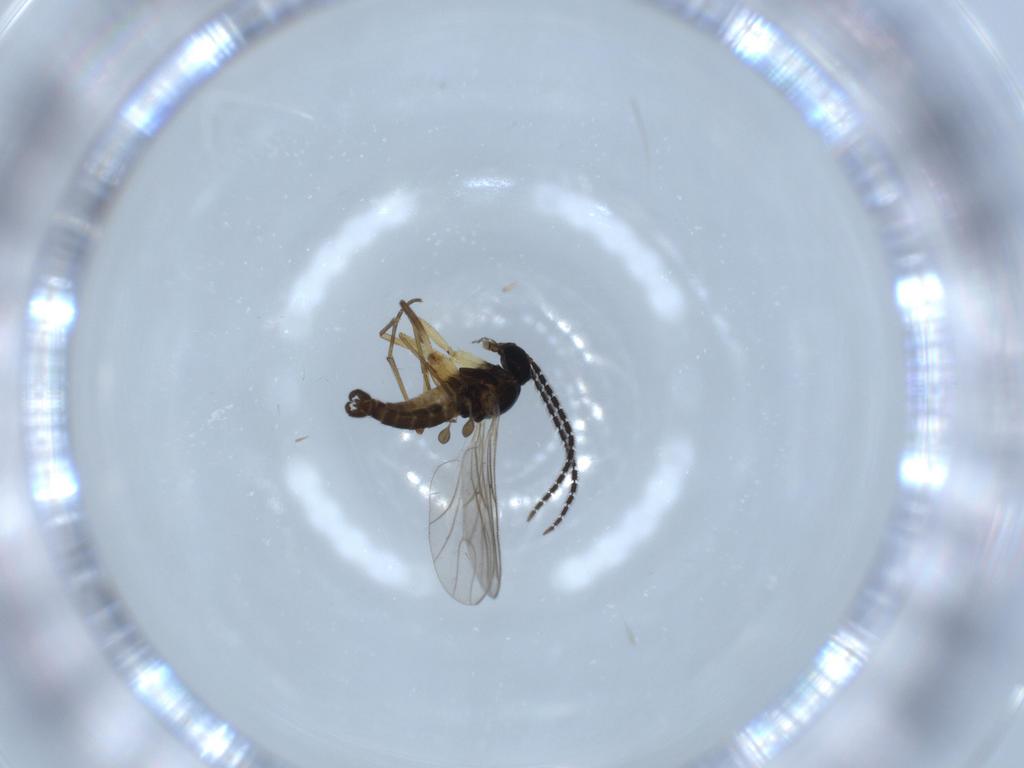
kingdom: Animalia
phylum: Arthropoda
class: Insecta
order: Diptera
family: Sciaridae
